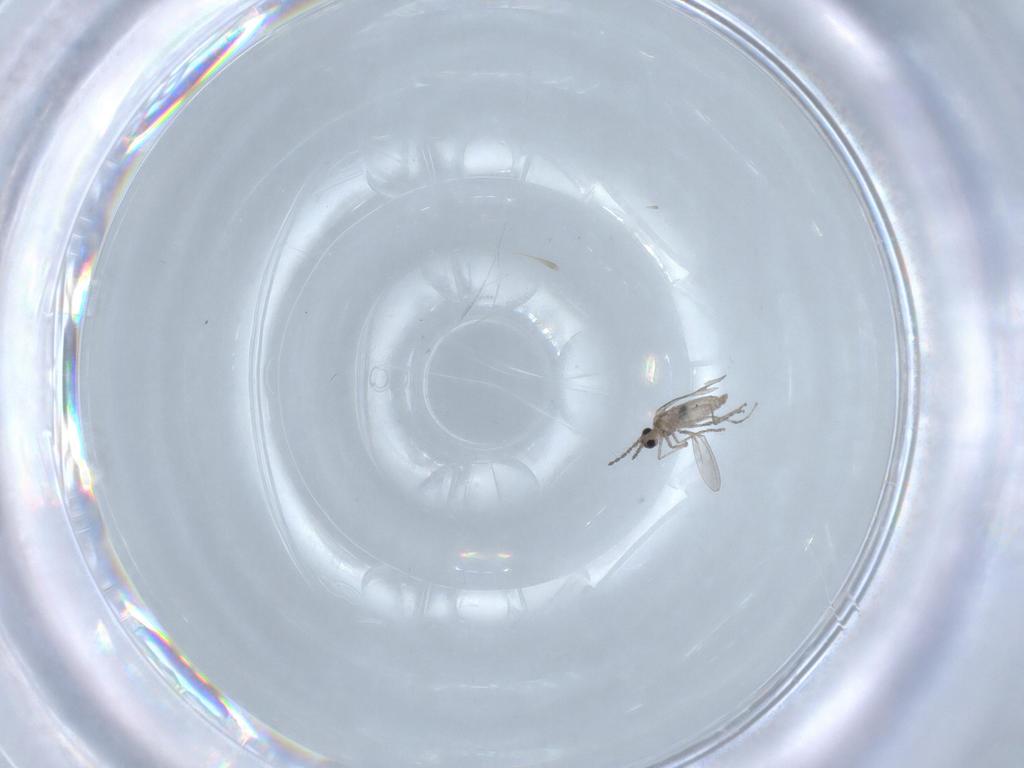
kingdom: Animalia
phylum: Arthropoda
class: Insecta
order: Diptera
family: Chironomidae
